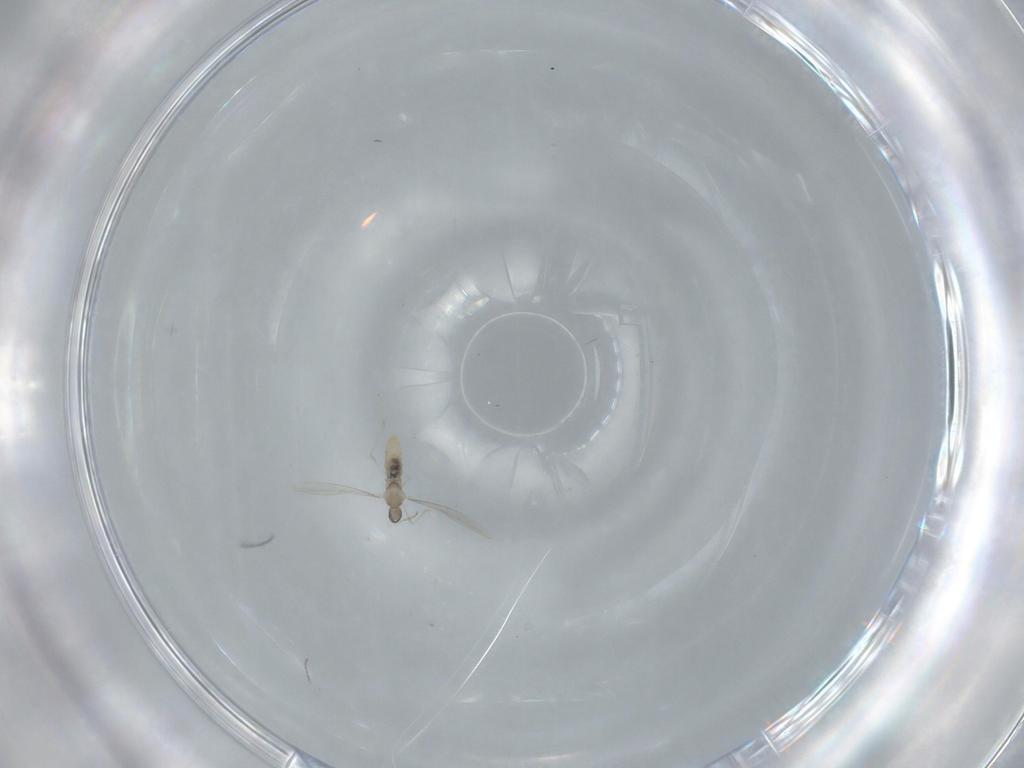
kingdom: Animalia
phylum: Arthropoda
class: Insecta
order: Diptera
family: Cecidomyiidae
